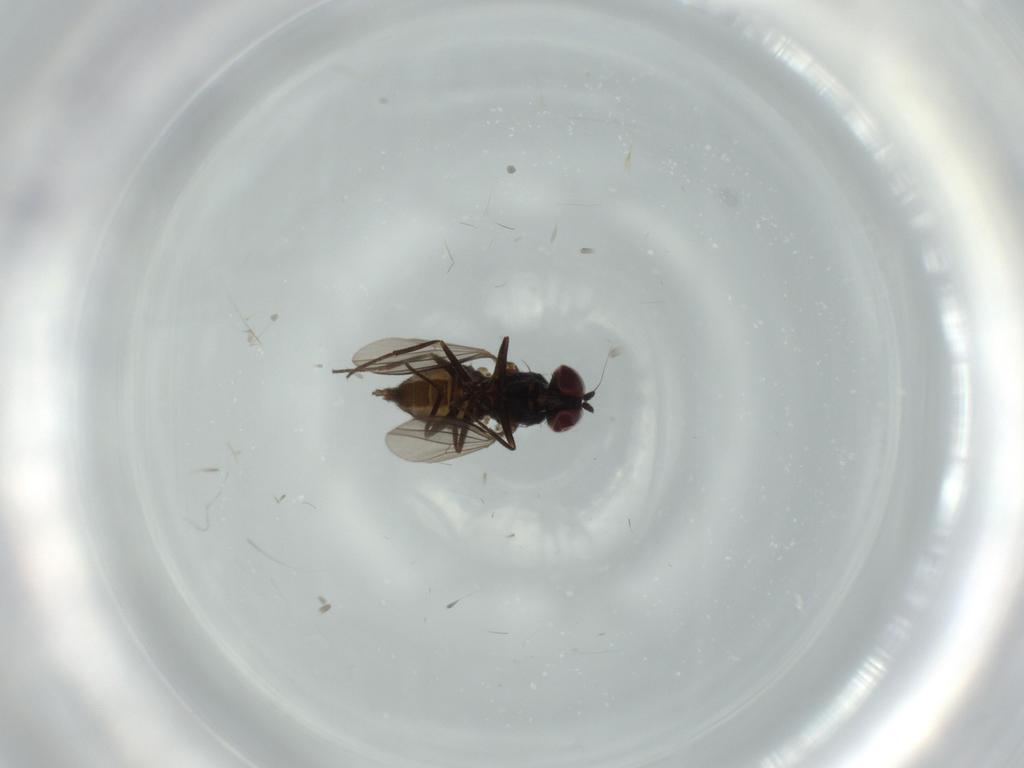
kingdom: Animalia
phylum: Arthropoda
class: Insecta
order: Diptera
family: Dolichopodidae
